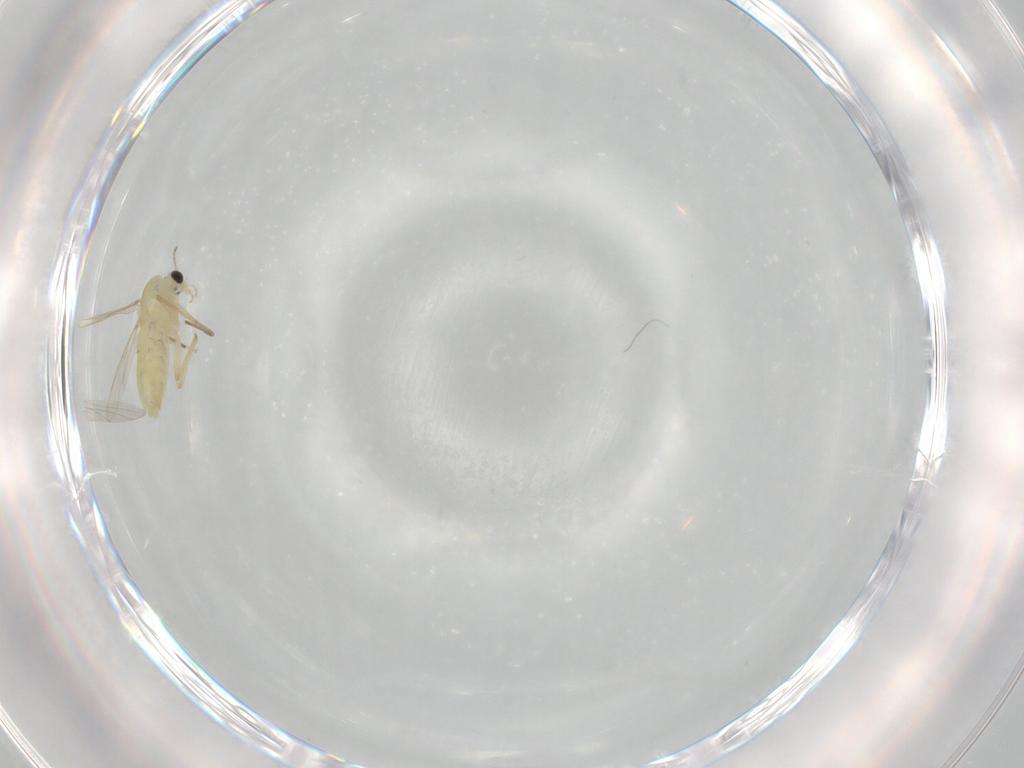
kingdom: Animalia
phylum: Arthropoda
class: Insecta
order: Diptera
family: Chironomidae
